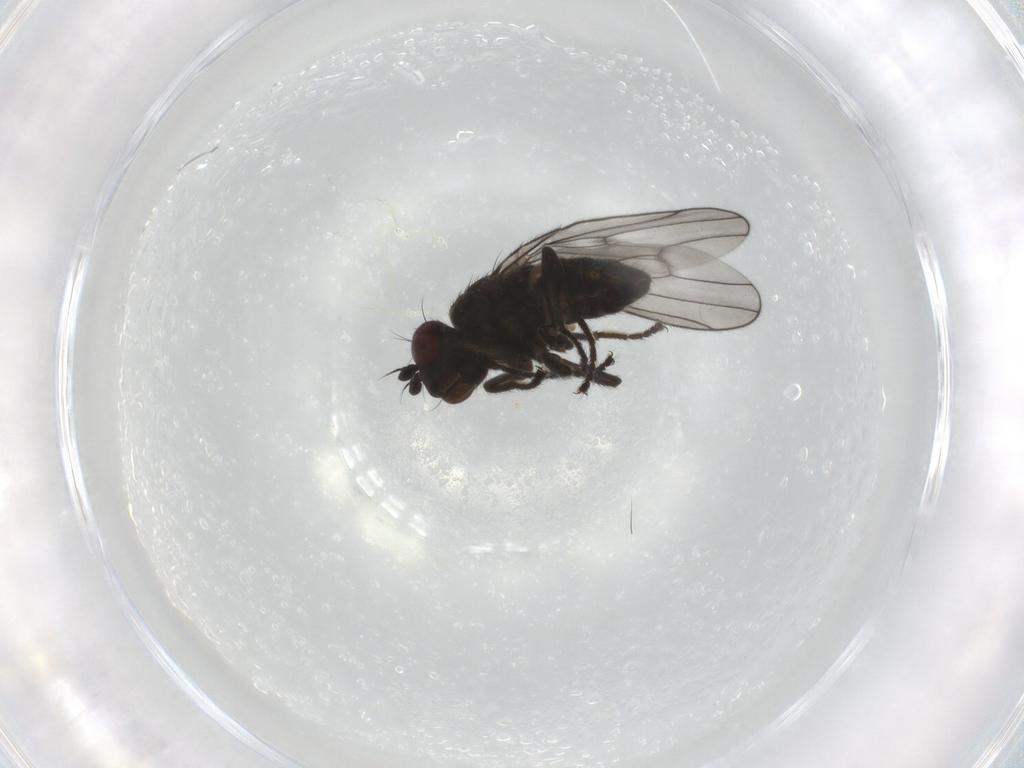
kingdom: Animalia
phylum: Arthropoda
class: Insecta
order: Diptera
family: Ephydridae
